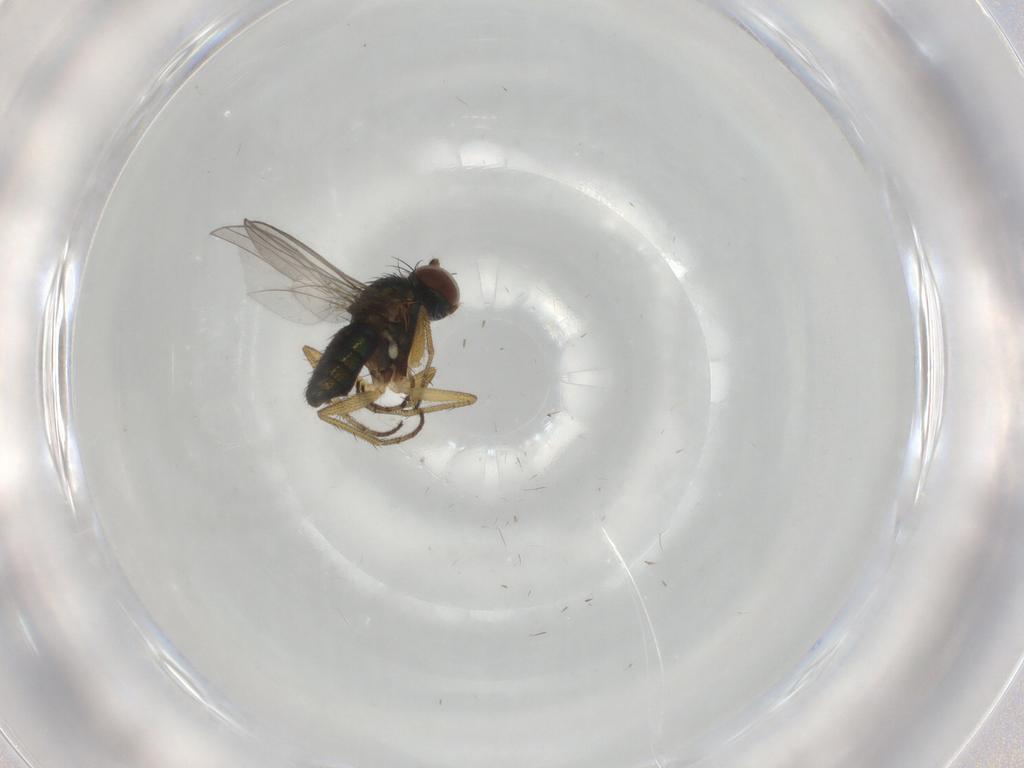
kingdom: Animalia
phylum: Arthropoda
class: Insecta
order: Diptera
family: Dolichopodidae
